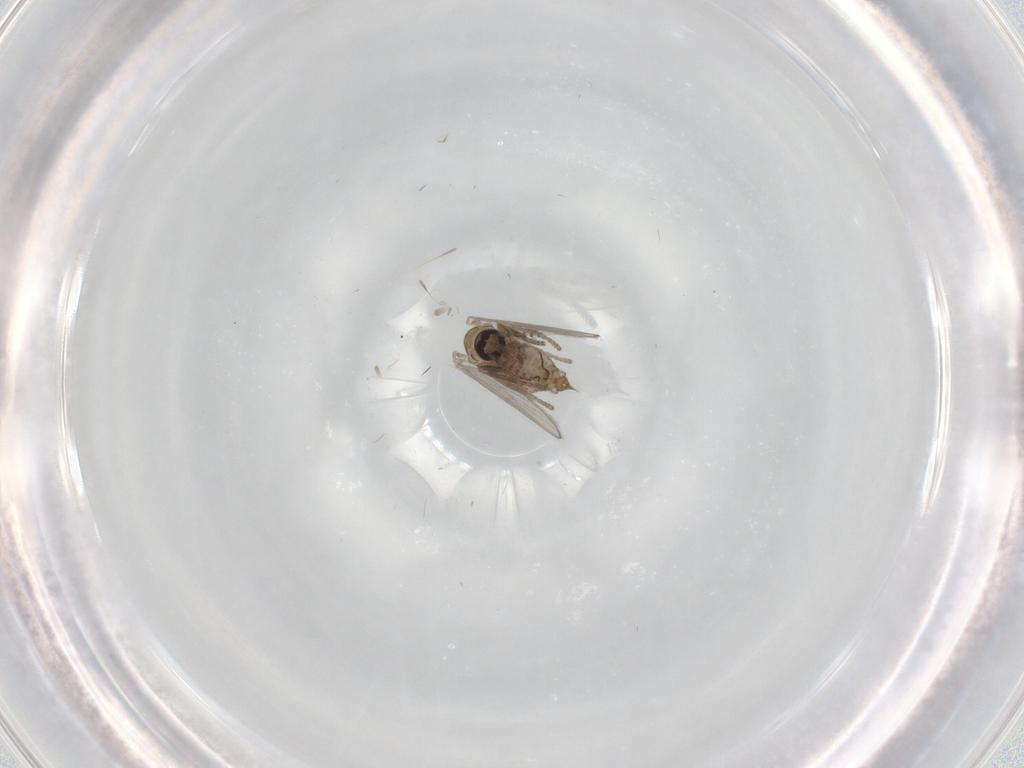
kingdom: Animalia
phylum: Arthropoda
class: Insecta
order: Diptera
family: Psychodidae
